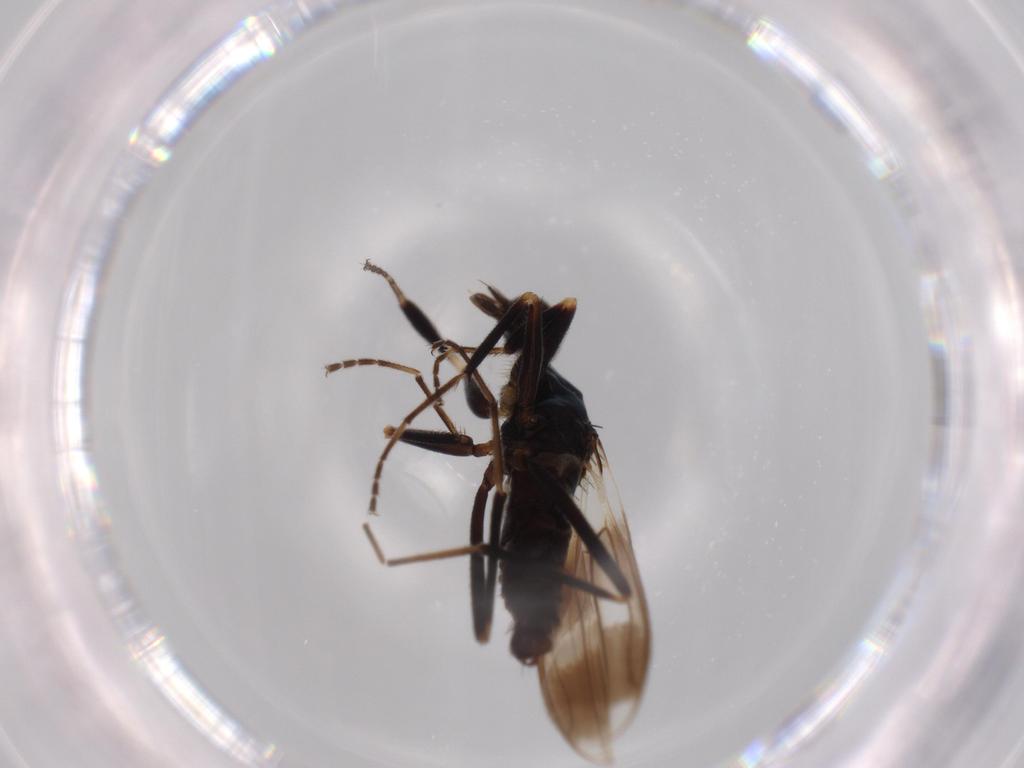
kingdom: Animalia
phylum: Arthropoda
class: Insecta
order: Diptera
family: Hybotidae
